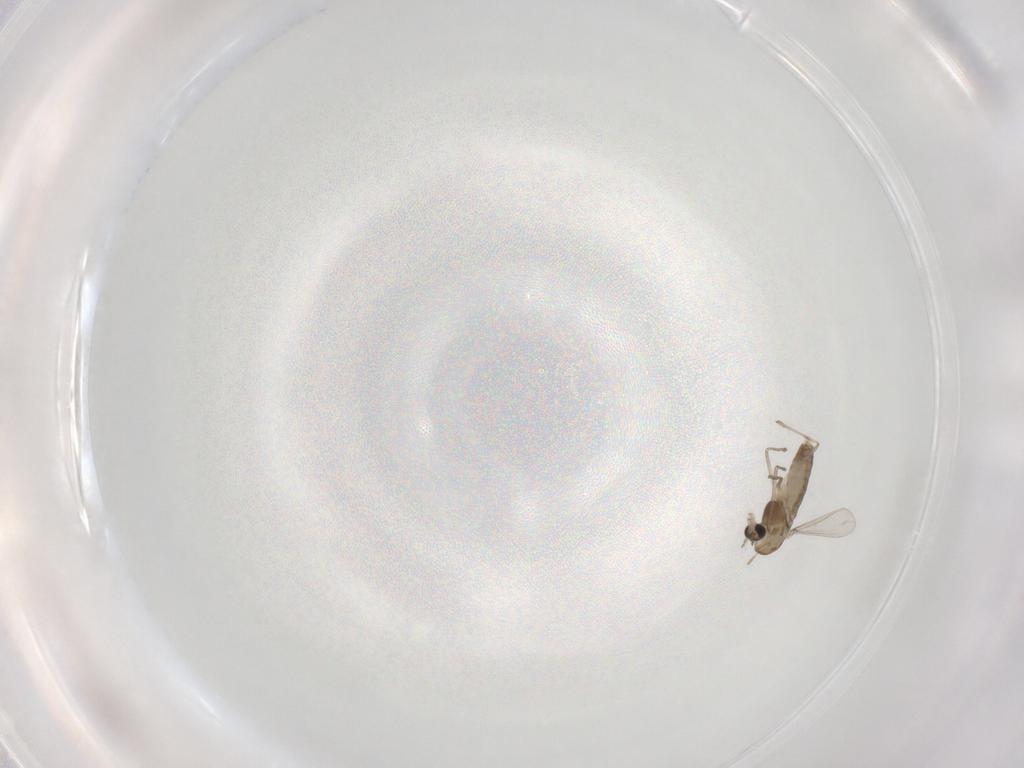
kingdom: Animalia
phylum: Arthropoda
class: Insecta
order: Diptera
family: Chironomidae
